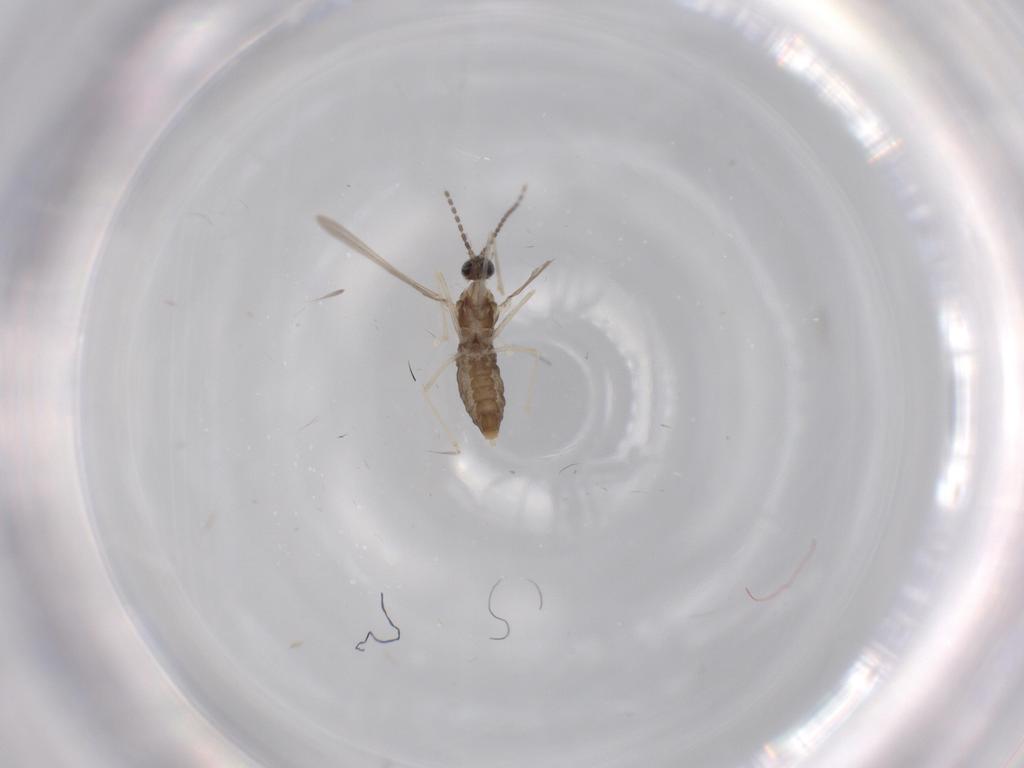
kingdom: Animalia
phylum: Arthropoda
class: Insecta
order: Diptera
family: Cecidomyiidae
